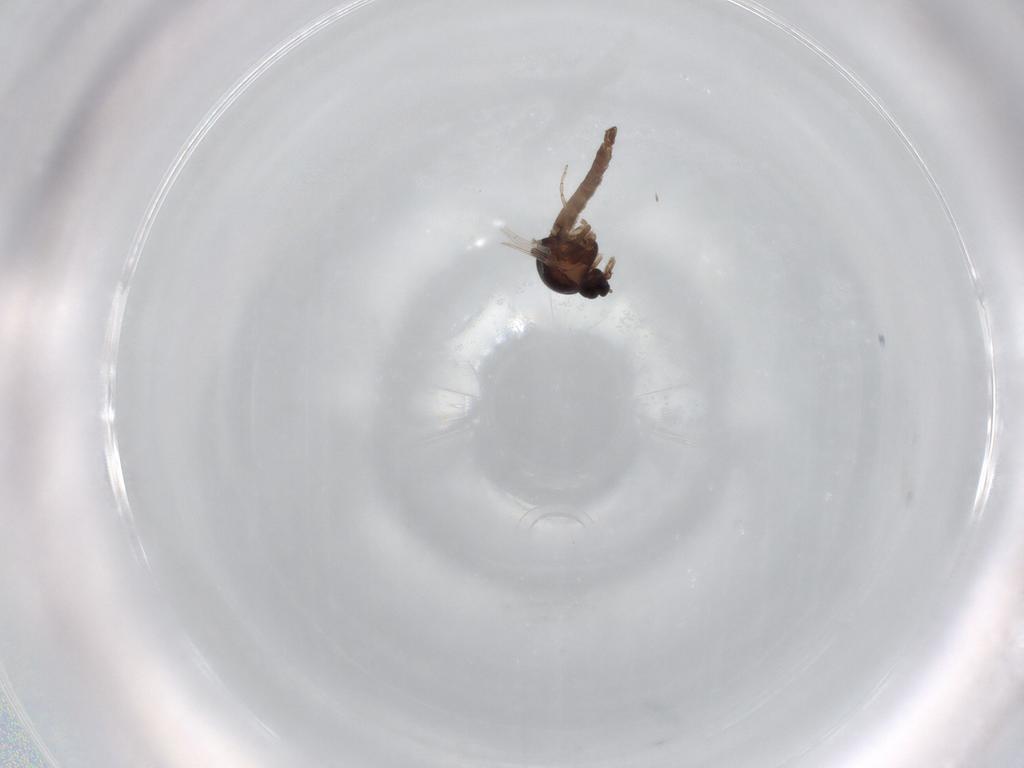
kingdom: Animalia
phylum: Arthropoda
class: Insecta
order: Diptera
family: Ceratopogonidae
